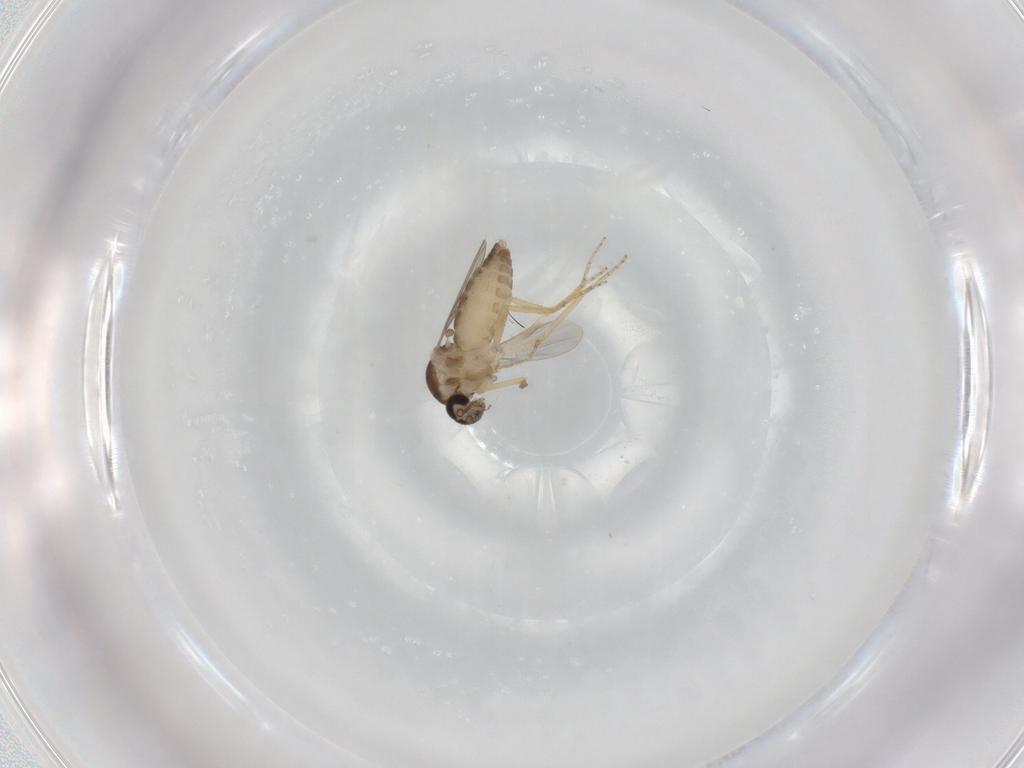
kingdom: Animalia
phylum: Arthropoda
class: Insecta
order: Diptera
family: Ceratopogonidae
